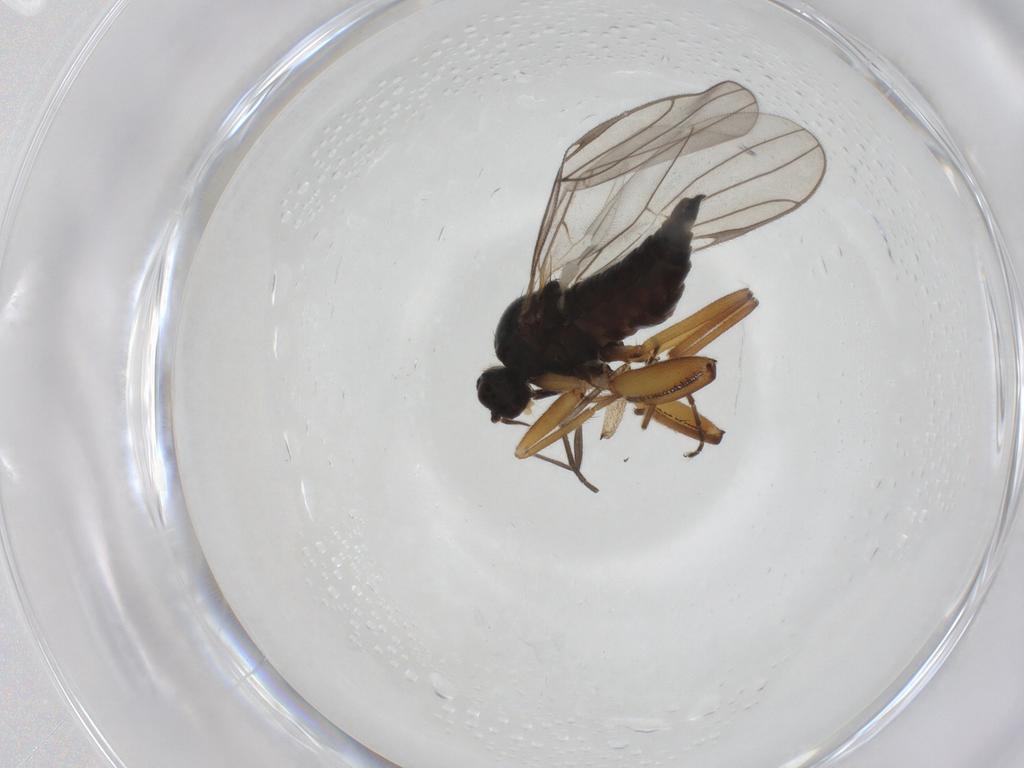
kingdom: Animalia
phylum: Arthropoda
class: Insecta
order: Diptera
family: Hybotidae
